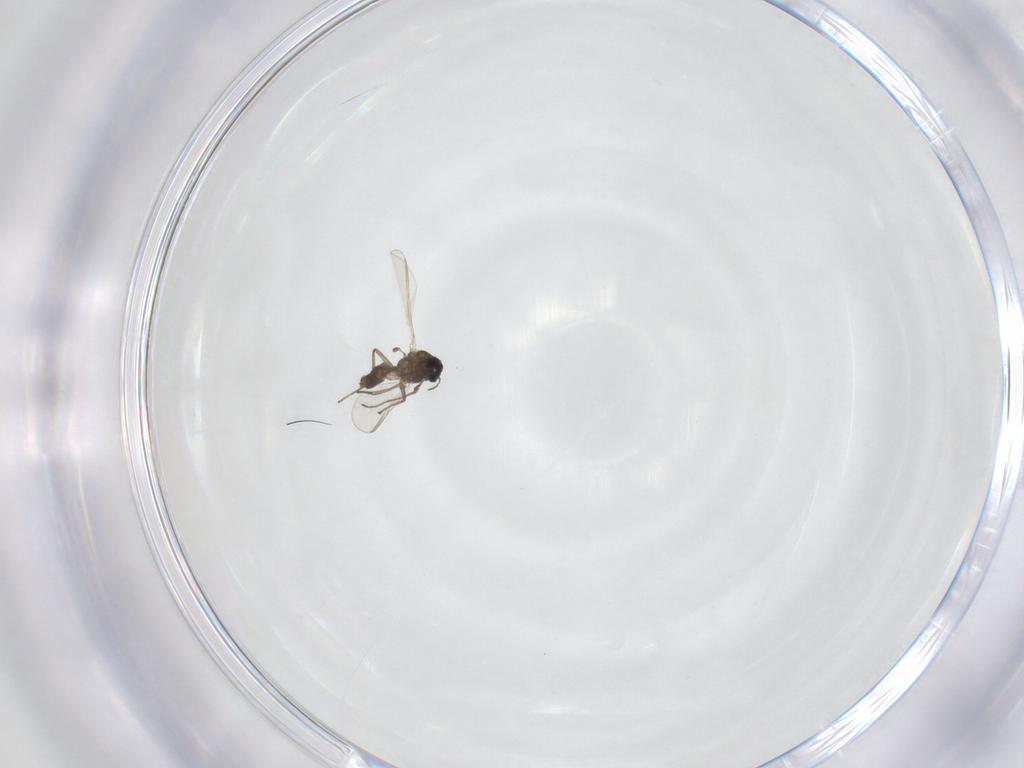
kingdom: Animalia
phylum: Arthropoda
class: Insecta
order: Diptera
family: Chironomidae
